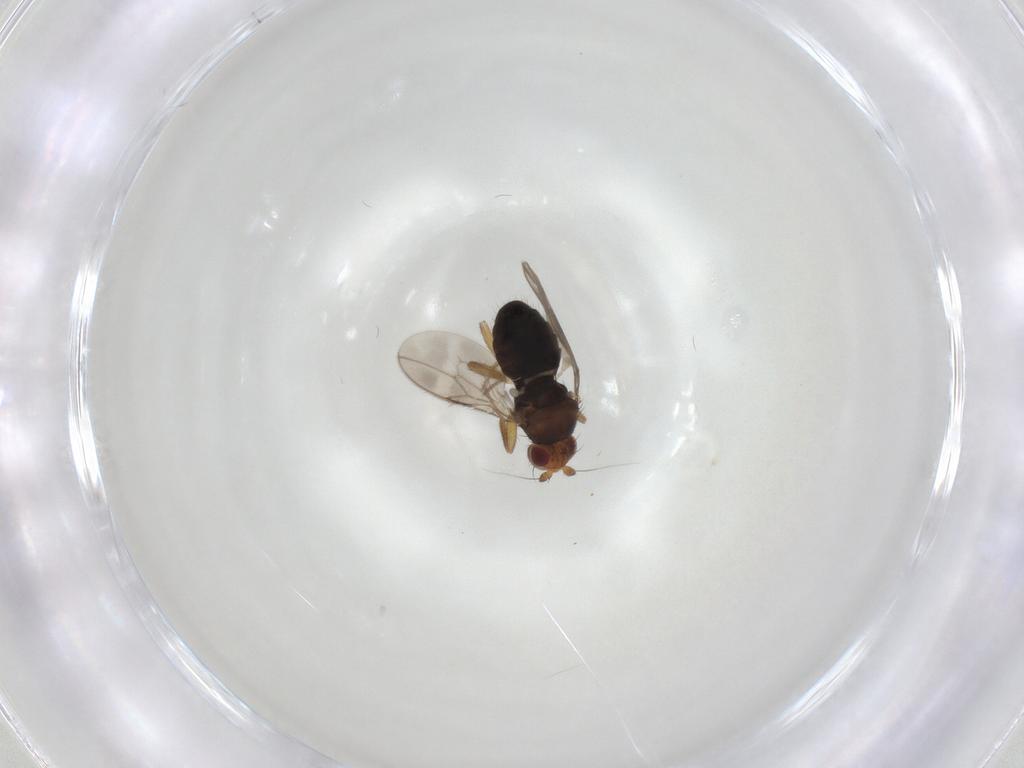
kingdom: Animalia
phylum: Arthropoda
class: Insecta
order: Diptera
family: Sphaeroceridae
